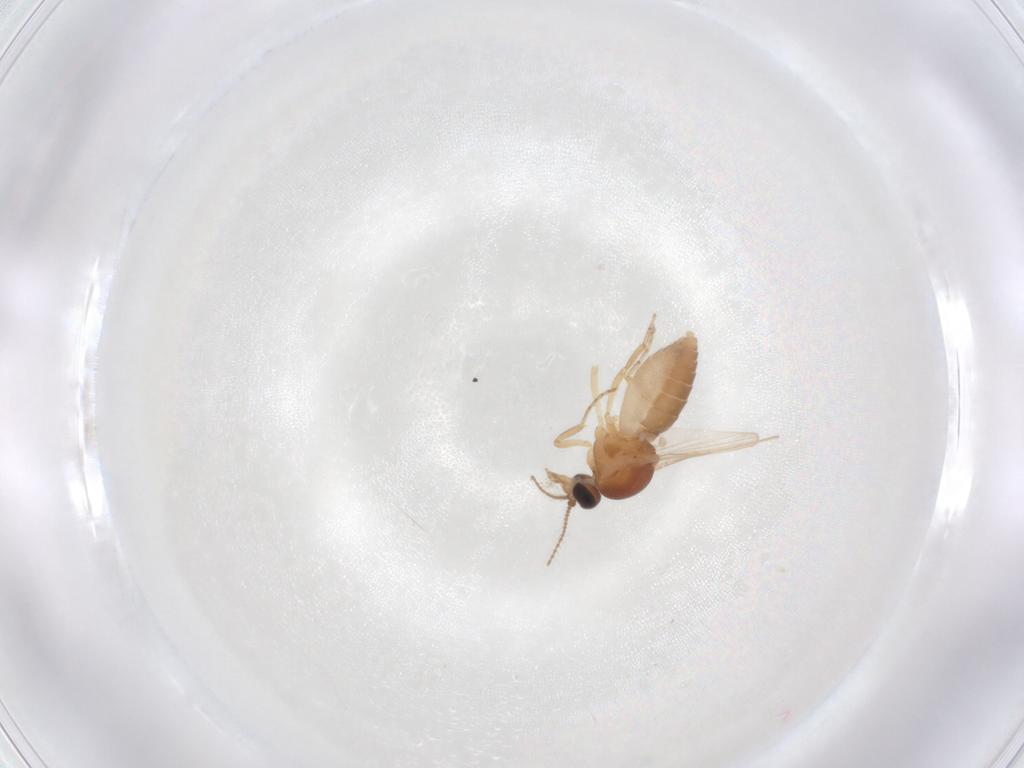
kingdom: Animalia
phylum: Arthropoda
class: Insecta
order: Diptera
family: Ceratopogonidae
